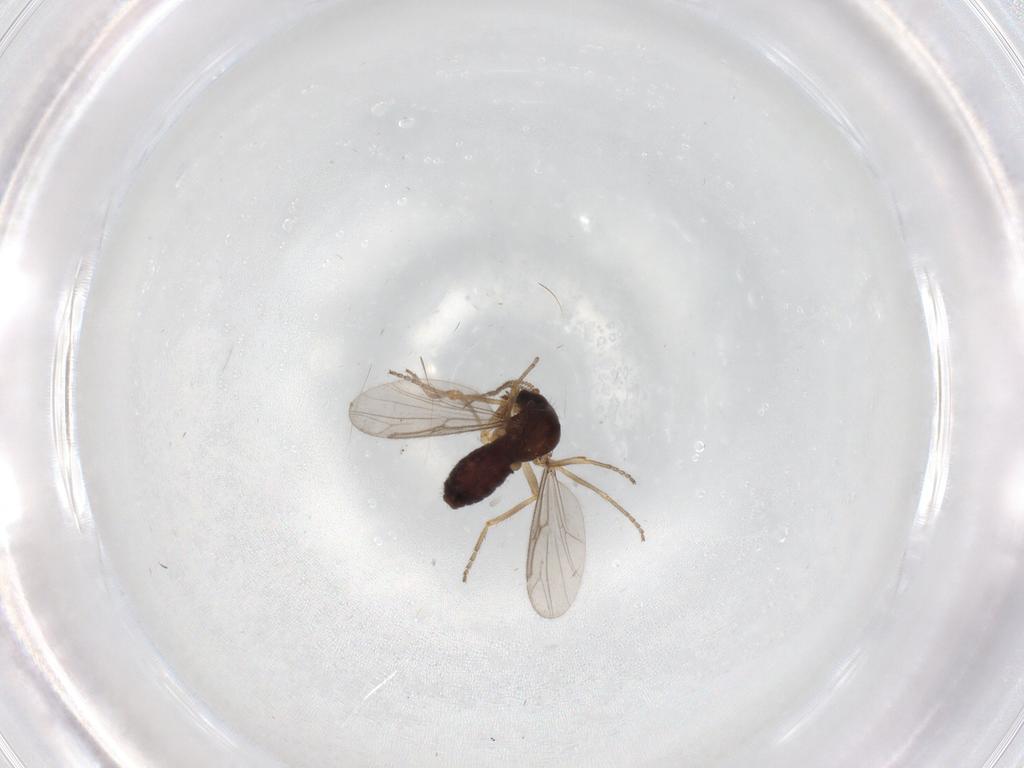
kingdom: Animalia
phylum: Arthropoda
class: Insecta
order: Diptera
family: Ceratopogonidae
